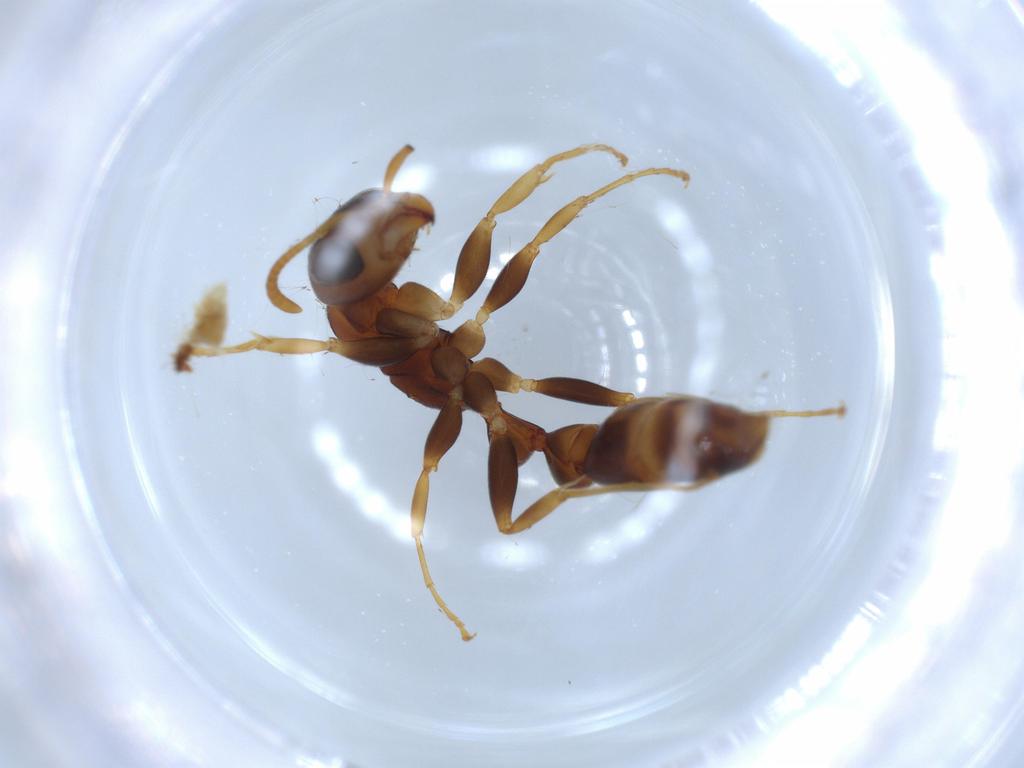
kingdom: Animalia
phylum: Arthropoda
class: Insecta
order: Hymenoptera
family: Formicidae
